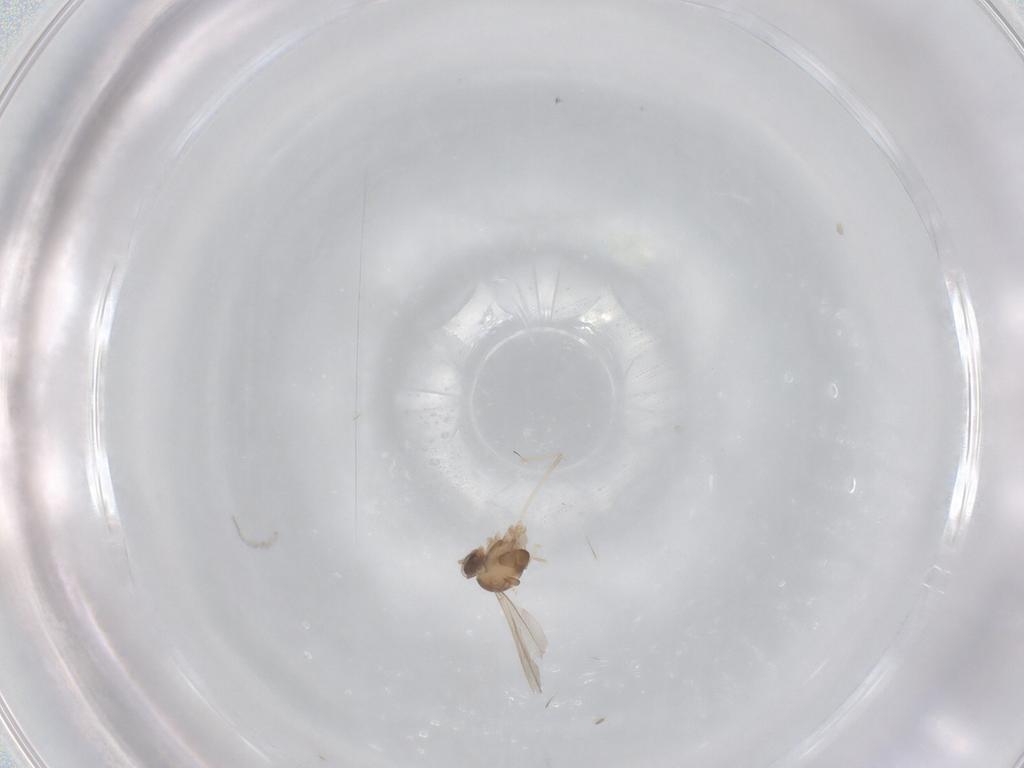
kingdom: Animalia
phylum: Arthropoda
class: Insecta
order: Diptera
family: Cecidomyiidae
